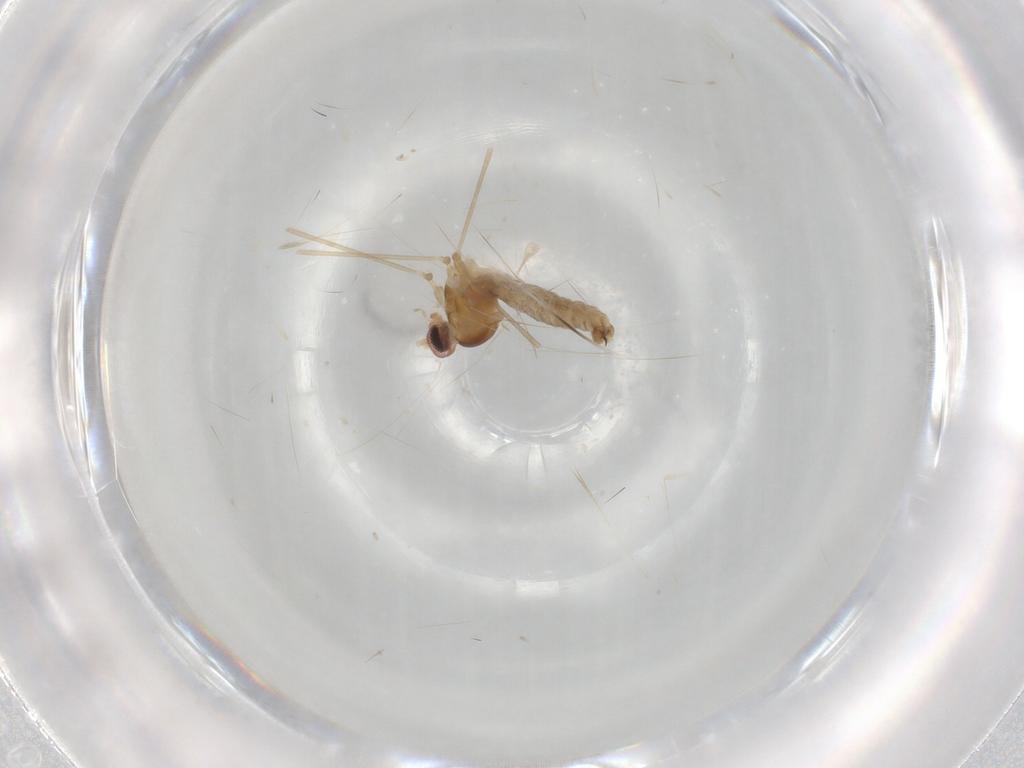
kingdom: Animalia
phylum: Arthropoda
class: Insecta
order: Diptera
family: Cecidomyiidae
